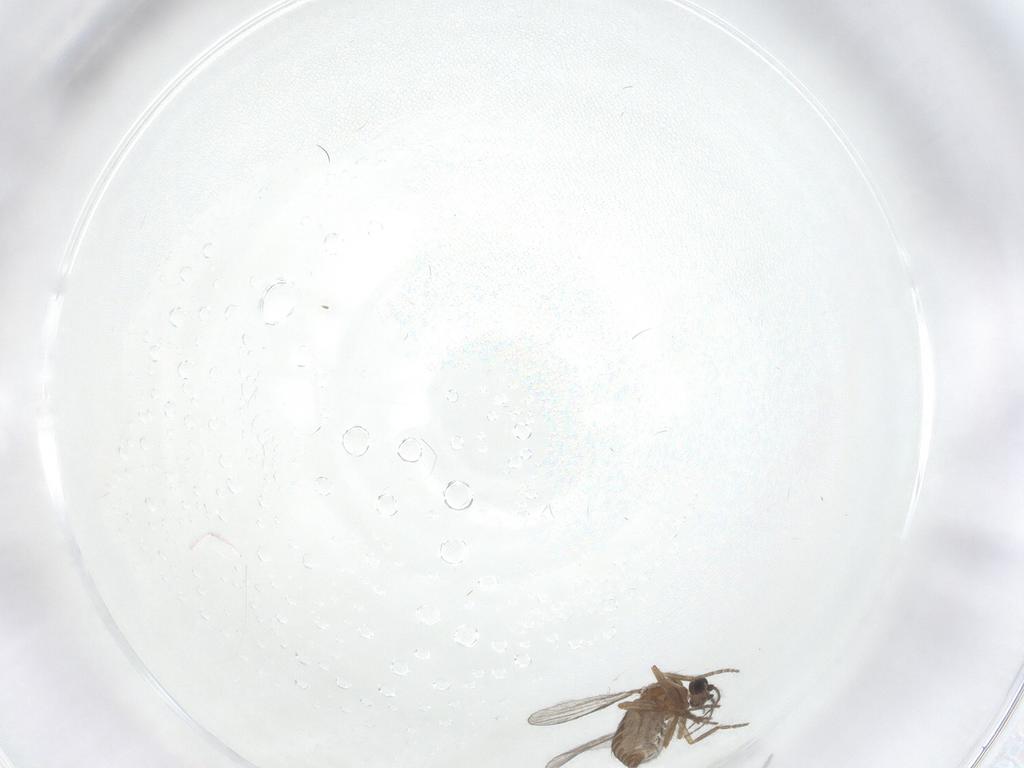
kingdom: Animalia
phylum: Arthropoda
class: Insecta
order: Diptera
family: Ceratopogonidae
